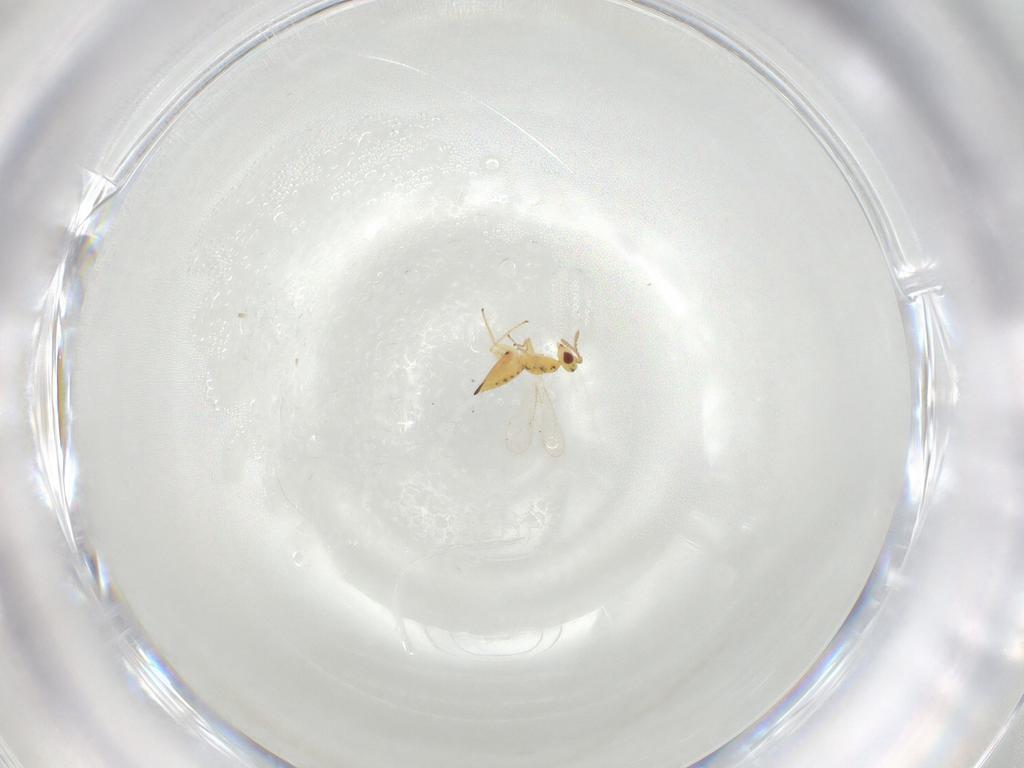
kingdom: Animalia
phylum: Arthropoda
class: Insecta
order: Hymenoptera
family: Eulophidae
